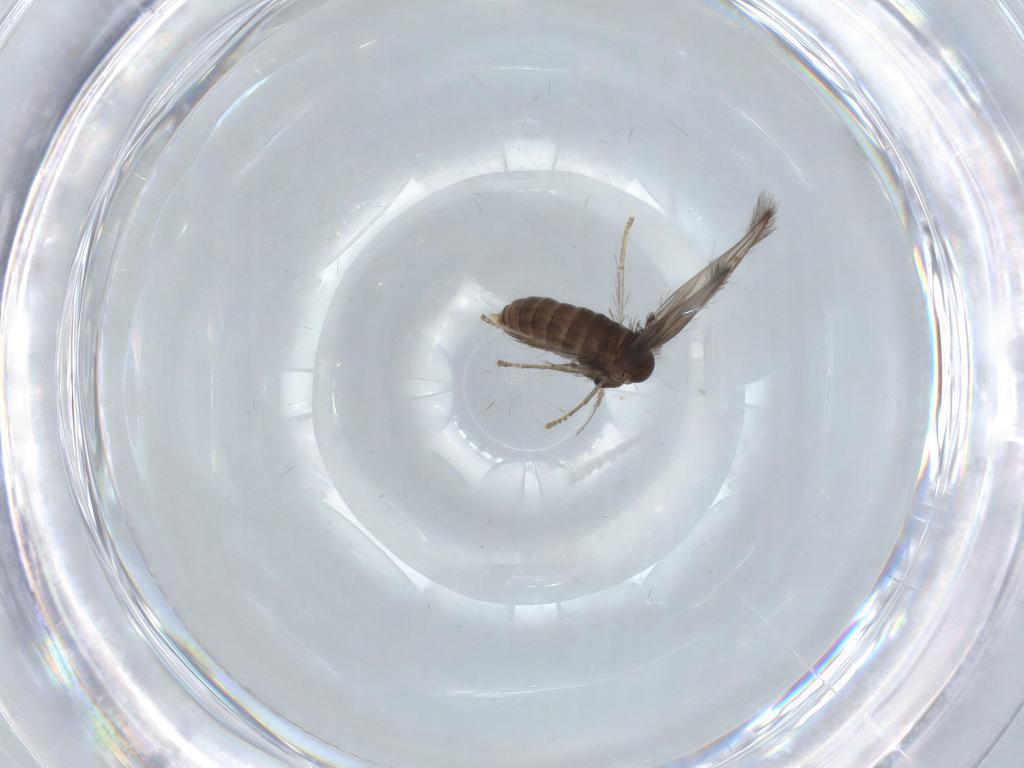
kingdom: Animalia
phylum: Arthropoda
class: Insecta
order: Diptera
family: Psychodidae
